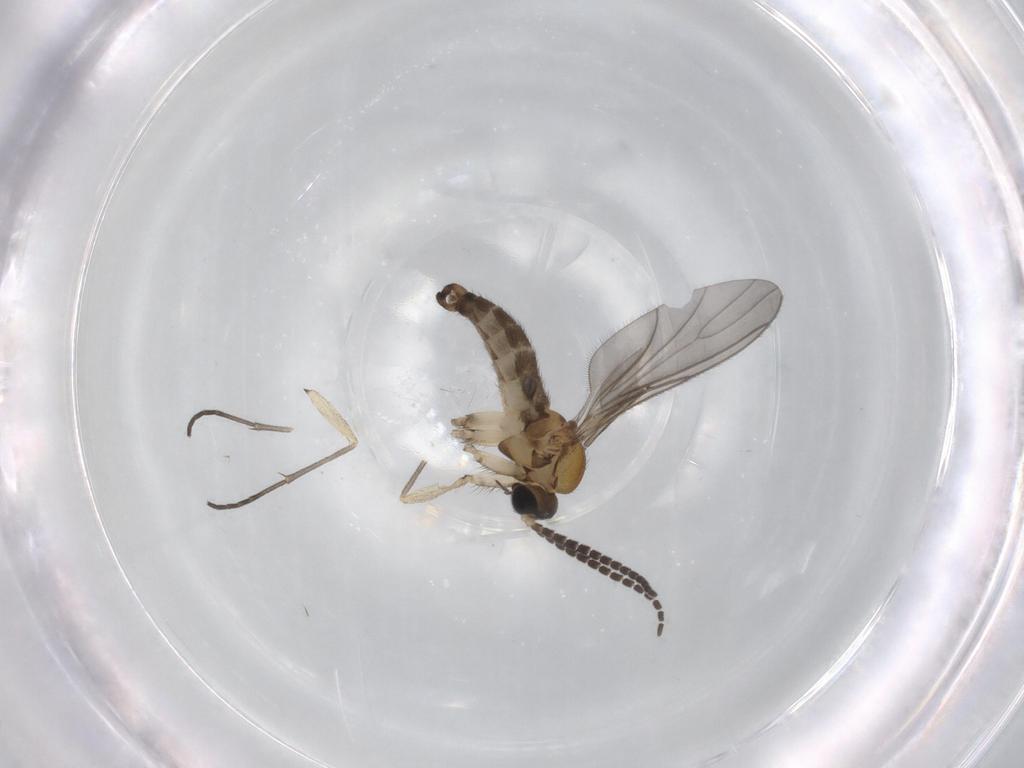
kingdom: Animalia
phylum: Arthropoda
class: Insecta
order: Diptera
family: Sciaridae
